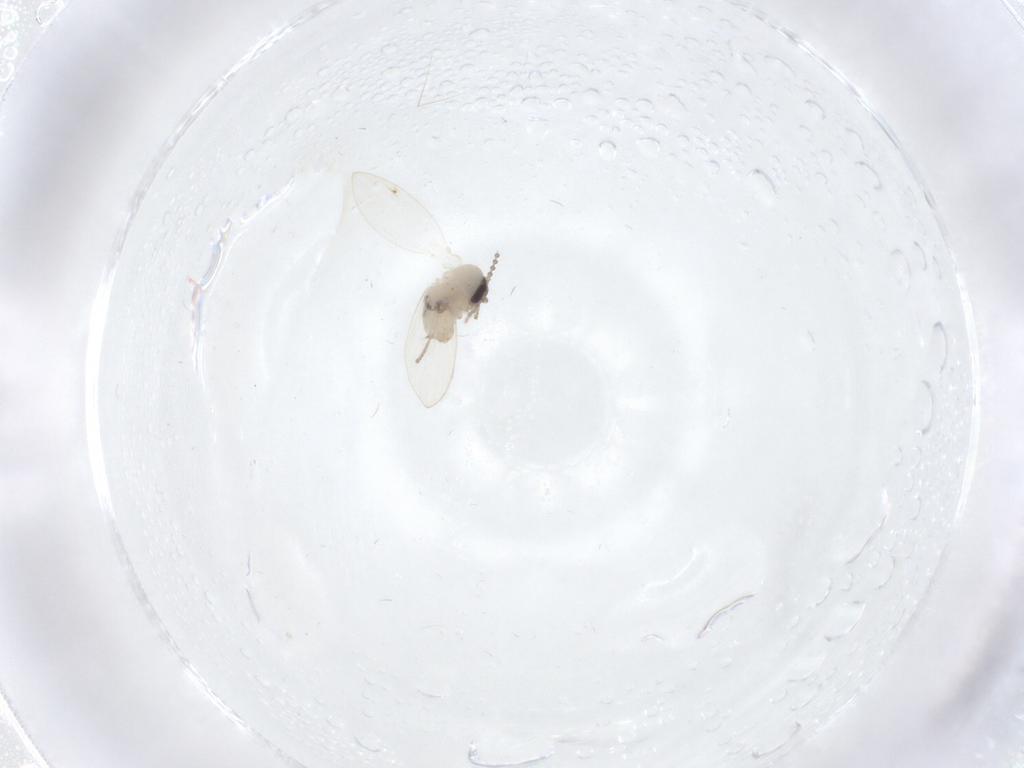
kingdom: Animalia
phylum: Arthropoda
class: Insecta
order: Diptera
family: Psychodidae
